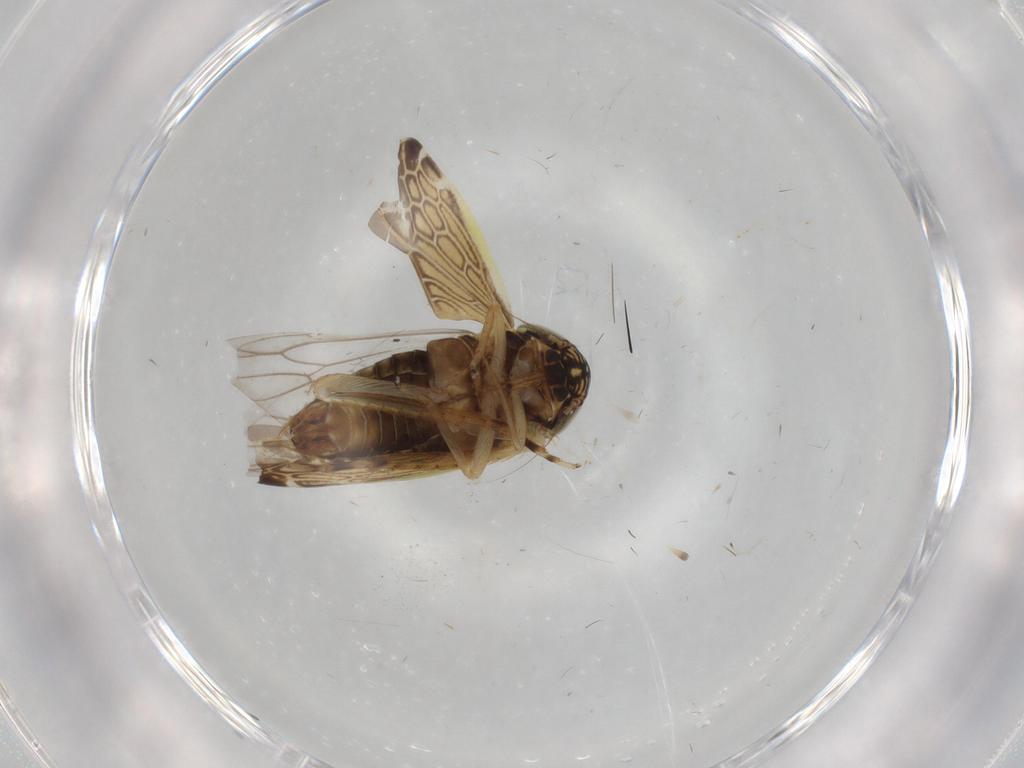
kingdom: Animalia
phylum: Arthropoda
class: Insecta
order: Hemiptera
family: Cicadellidae
